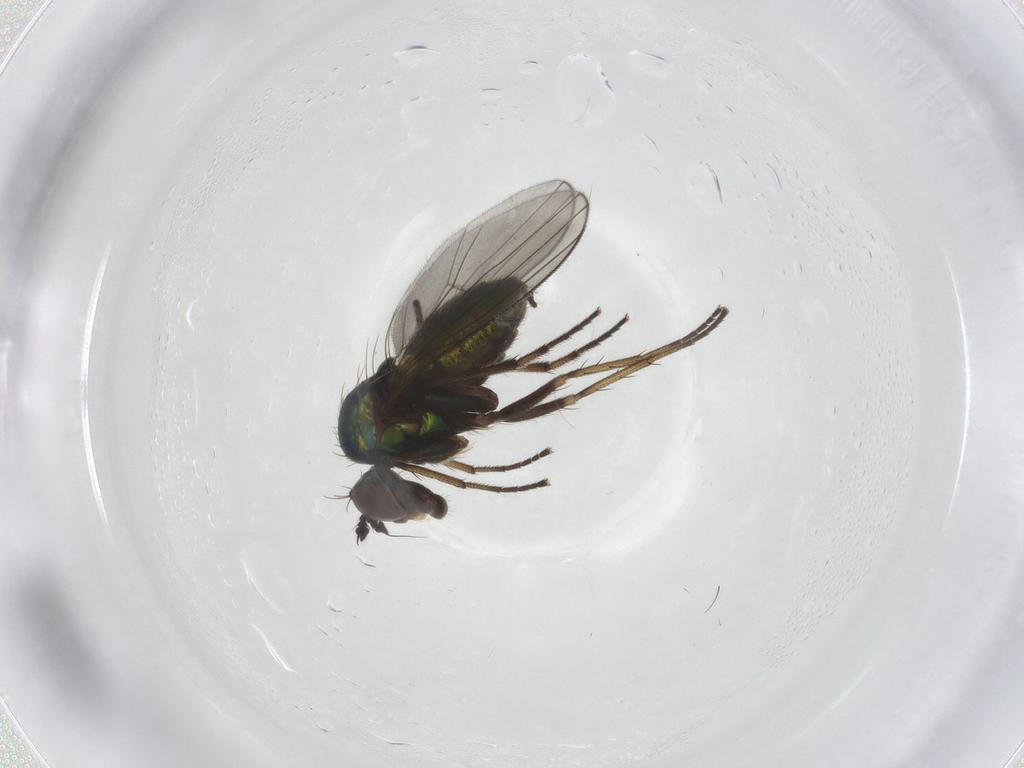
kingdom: Animalia
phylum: Arthropoda
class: Insecta
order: Diptera
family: Dolichopodidae
